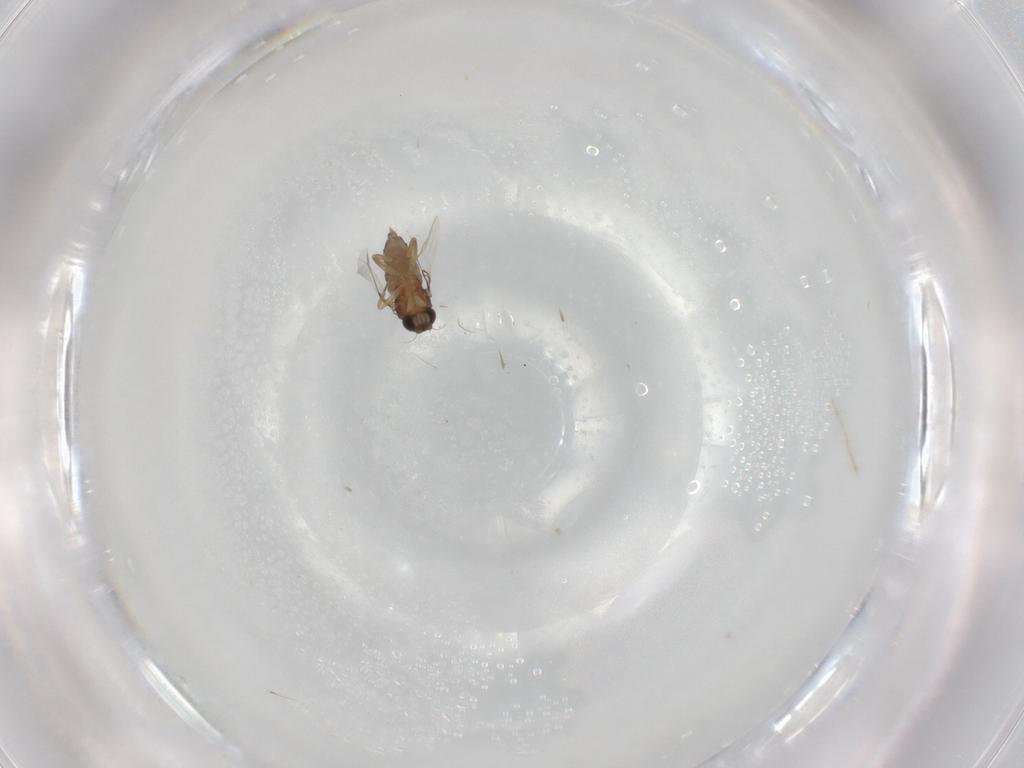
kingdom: Animalia
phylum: Arthropoda
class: Insecta
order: Diptera
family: Phoridae
